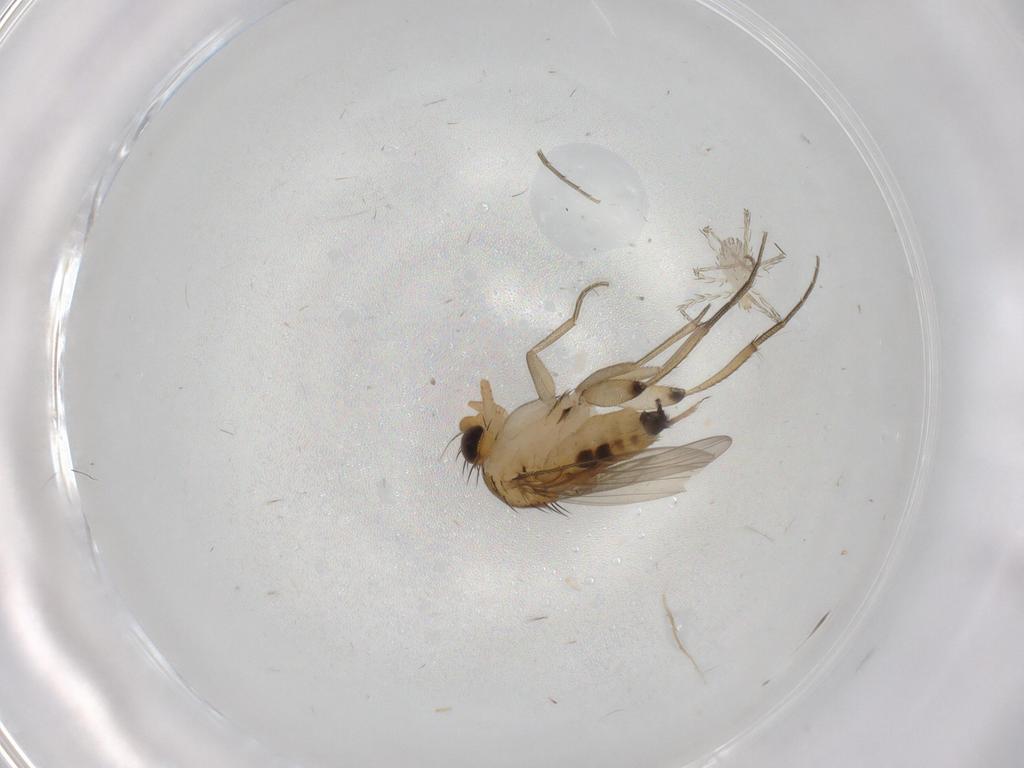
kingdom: Animalia
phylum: Arthropoda
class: Insecta
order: Diptera
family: Phoridae
